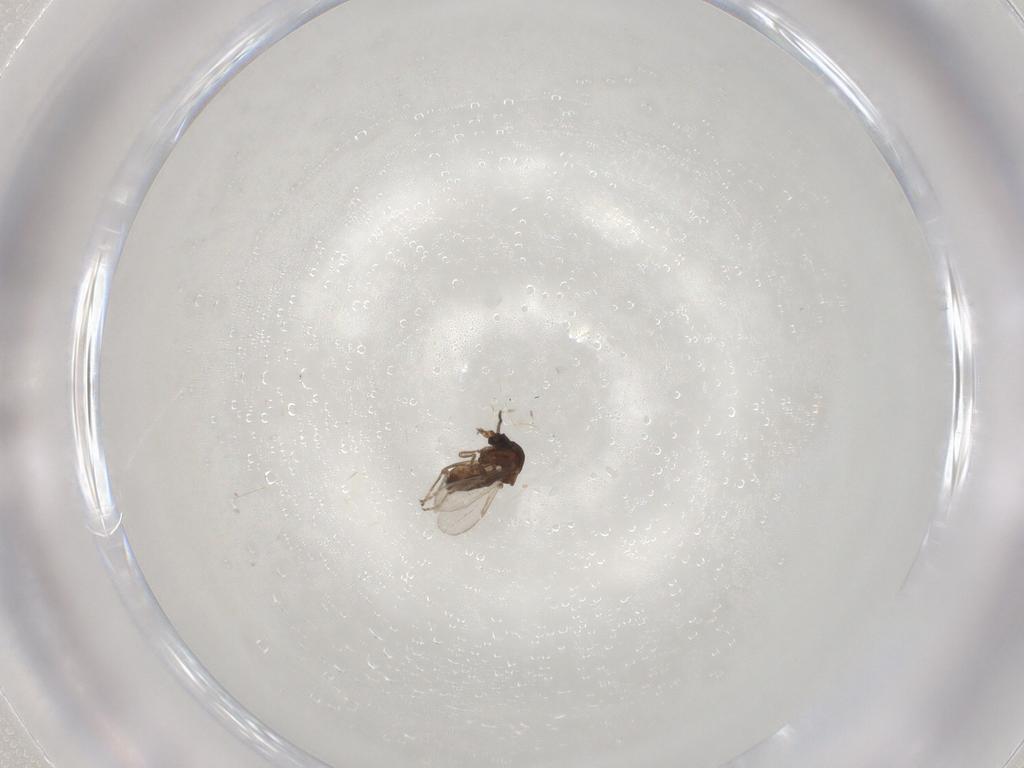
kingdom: Animalia
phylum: Arthropoda
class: Insecta
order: Diptera
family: Ceratopogonidae
